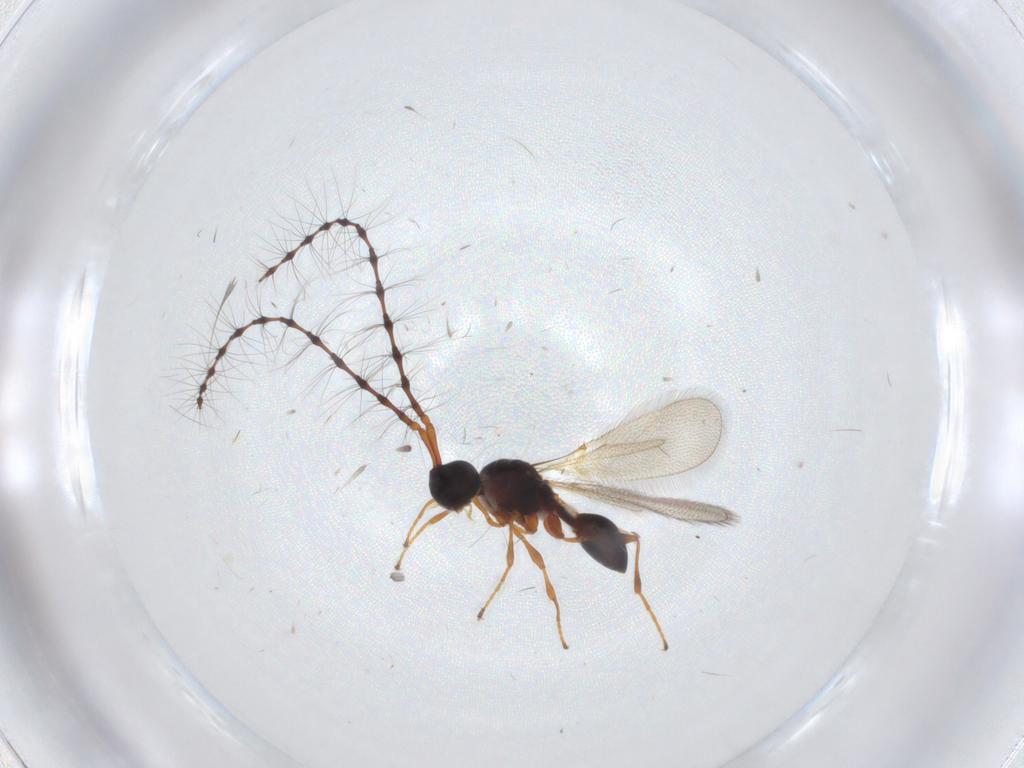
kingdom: Animalia
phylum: Arthropoda
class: Insecta
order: Hymenoptera
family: Diapriidae
